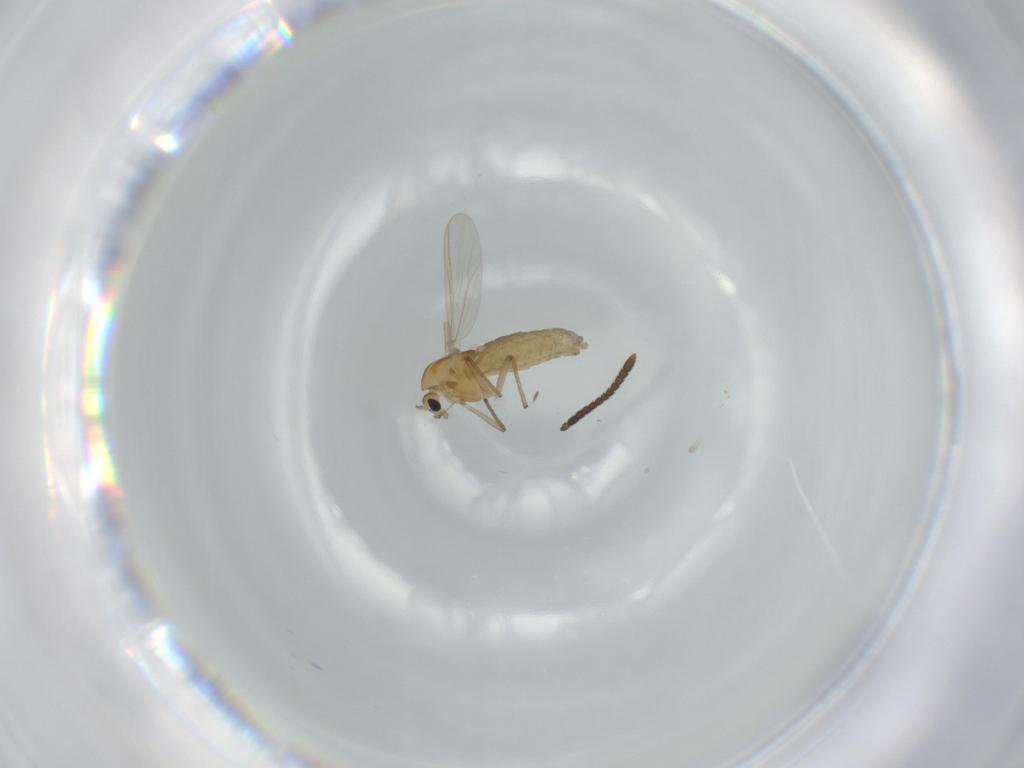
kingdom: Animalia
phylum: Arthropoda
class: Insecta
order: Diptera
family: Chironomidae
